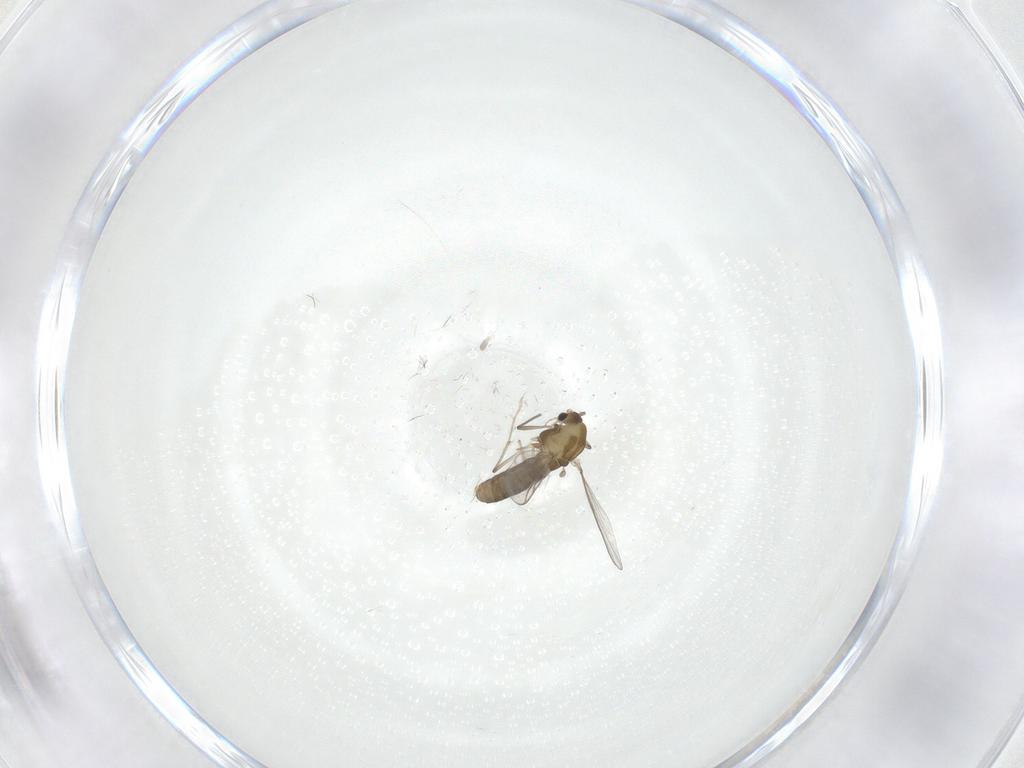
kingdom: Animalia
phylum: Arthropoda
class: Insecta
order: Diptera
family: Chironomidae
